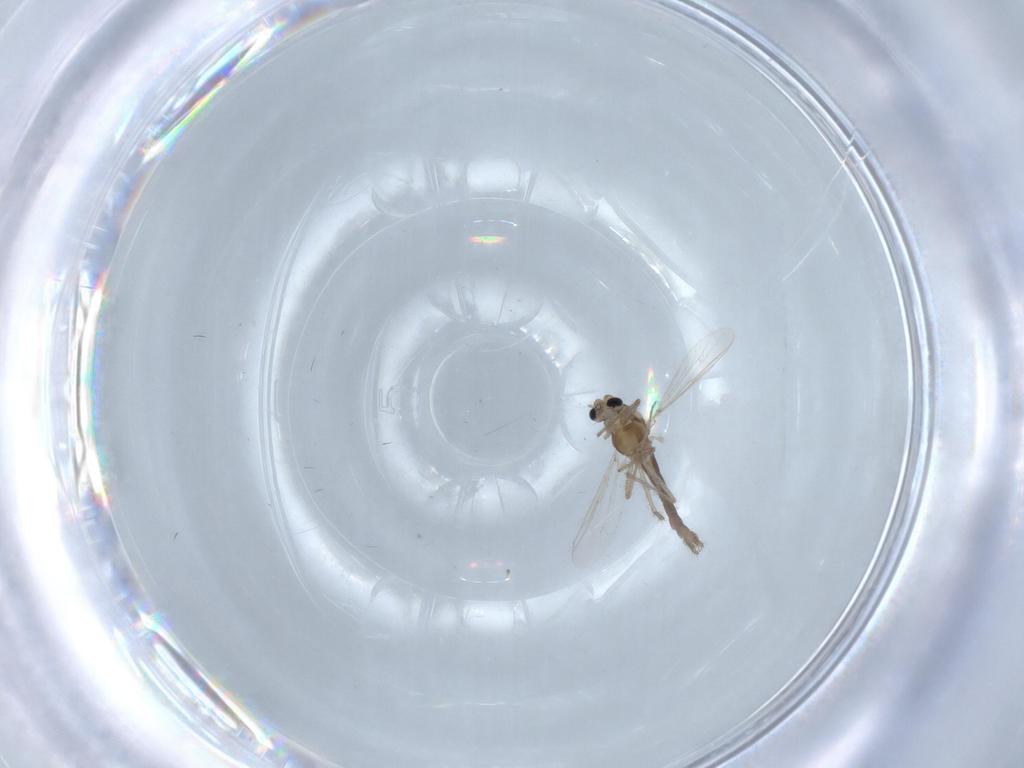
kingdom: Animalia
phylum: Arthropoda
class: Insecta
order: Diptera
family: Chironomidae
